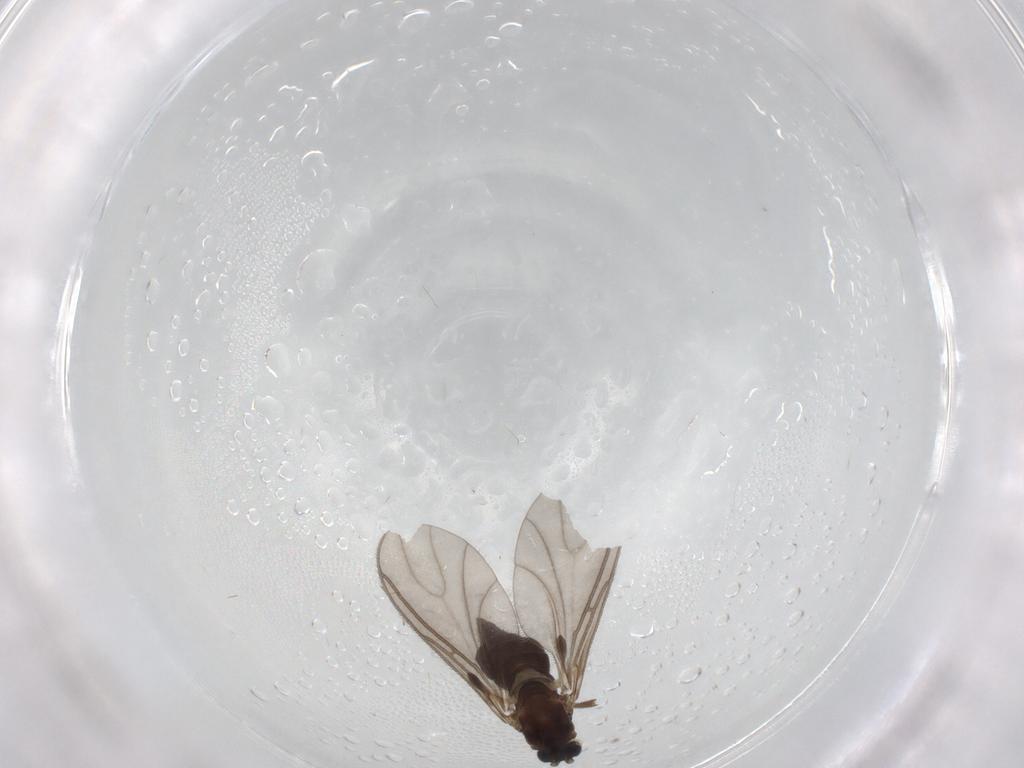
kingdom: Animalia
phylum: Arthropoda
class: Insecta
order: Diptera
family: Sciaridae
